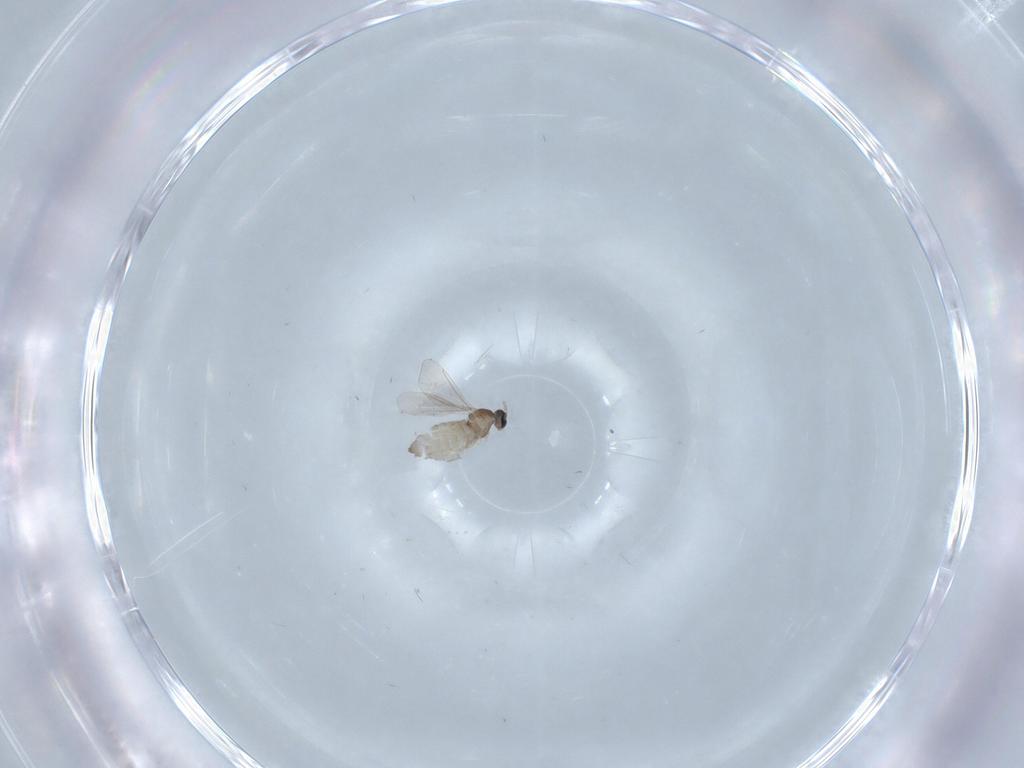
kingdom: Animalia
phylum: Arthropoda
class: Insecta
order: Diptera
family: Cecidomyiidae
